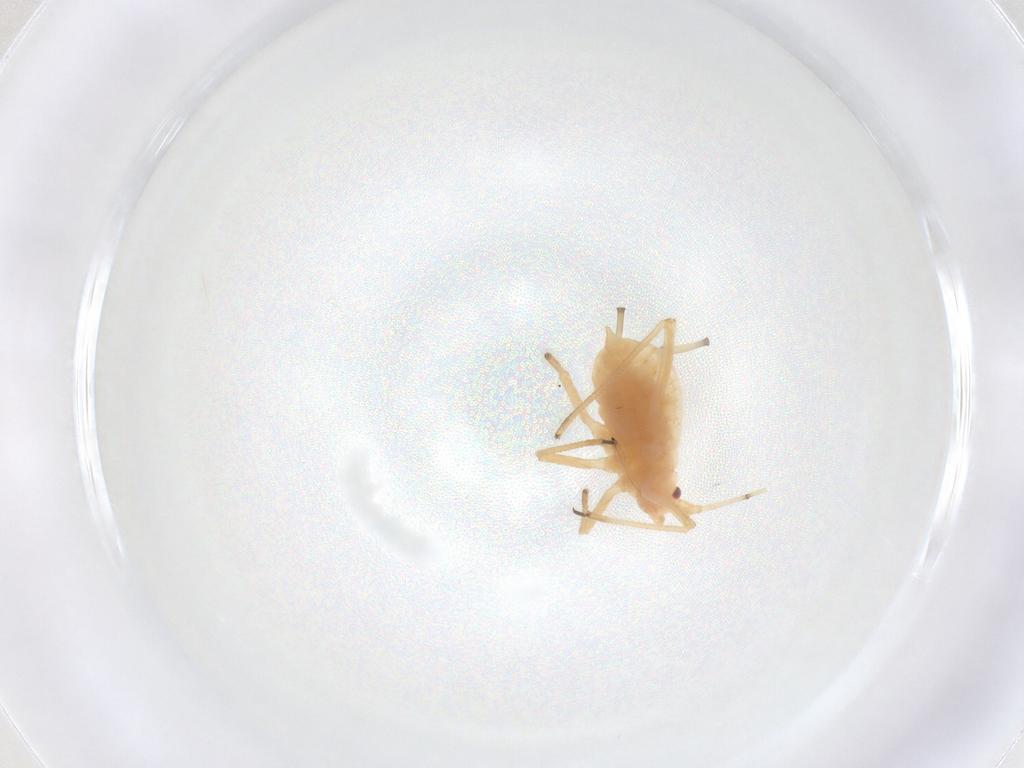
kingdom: Animalia
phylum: Arthropoda
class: Insecta
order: Hemiptera
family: Aphididae
